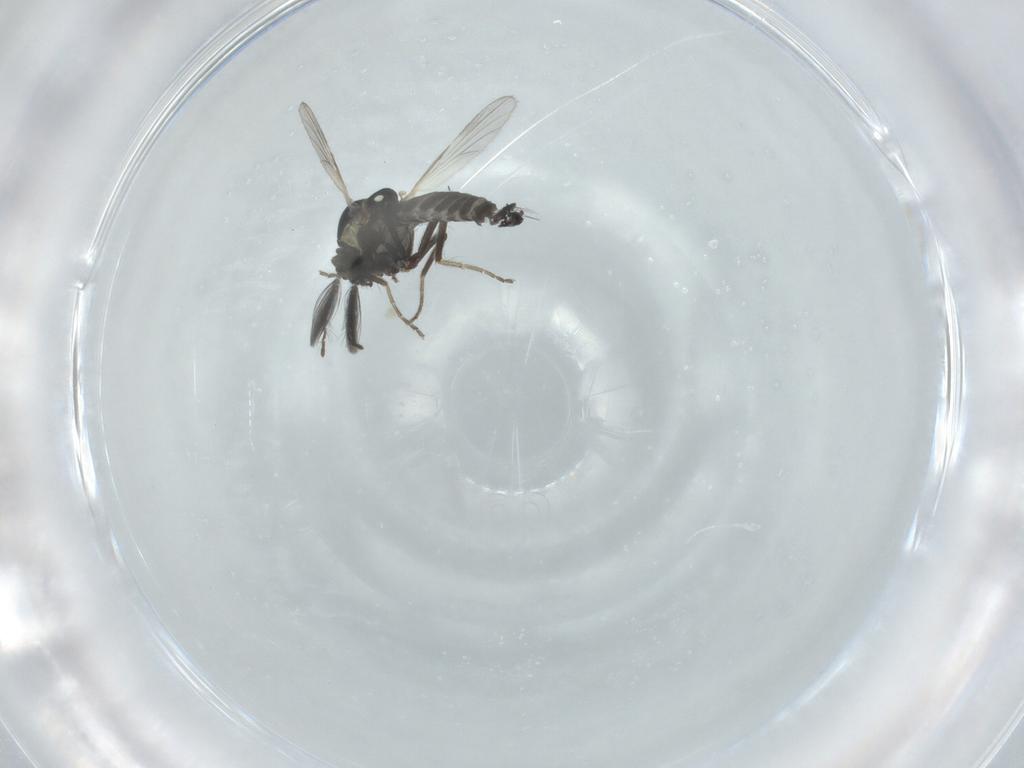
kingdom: Animalia
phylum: Arthropoda
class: Insecta
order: Diptera
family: Ceratopogonidae
